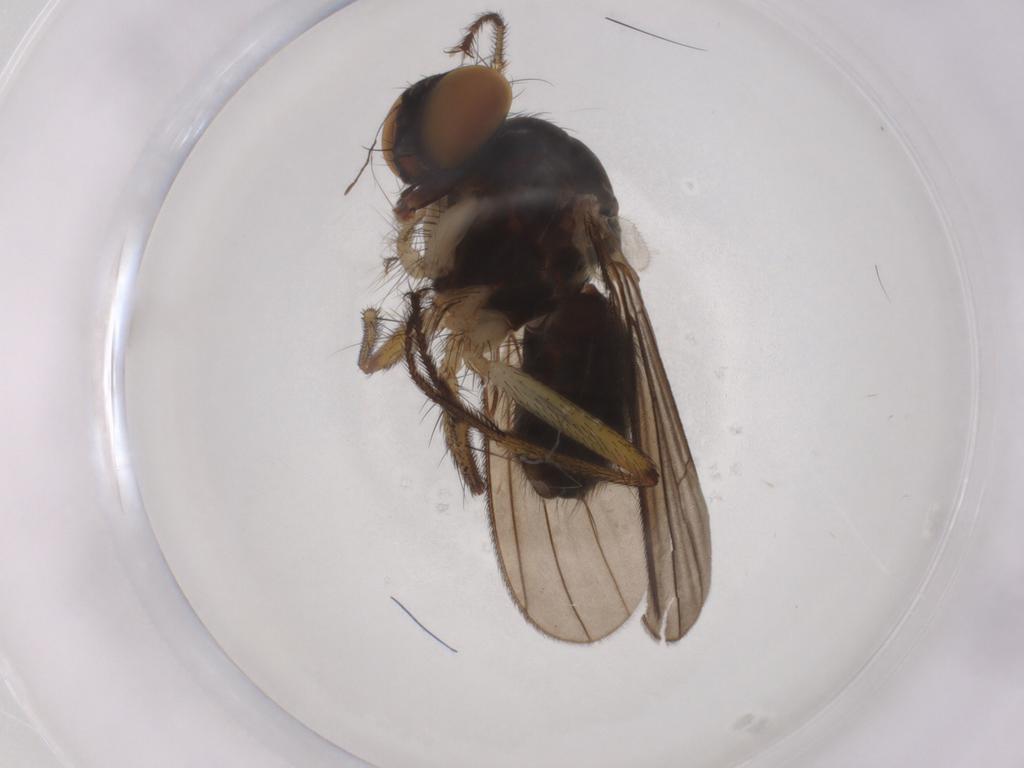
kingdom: Animalia
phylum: Arthropoda
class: Insecta
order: Diptera
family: Muscidae
